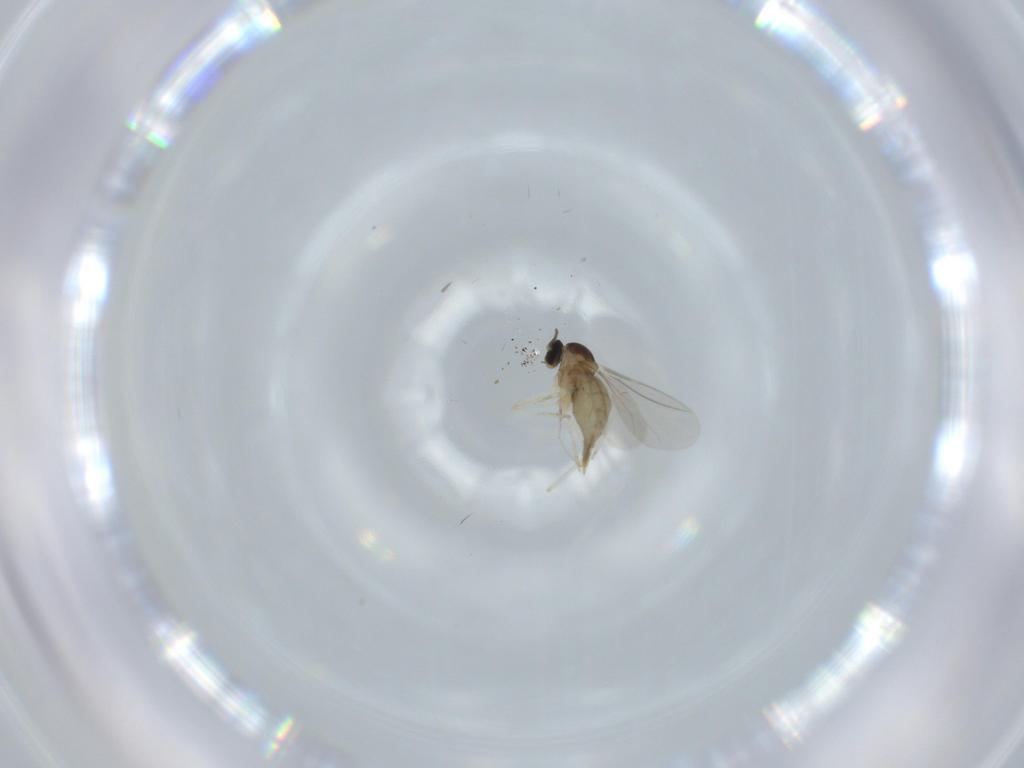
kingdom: Animalia
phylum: Arthropoda
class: Insecta
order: Diptera
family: Cecidomyiidae
